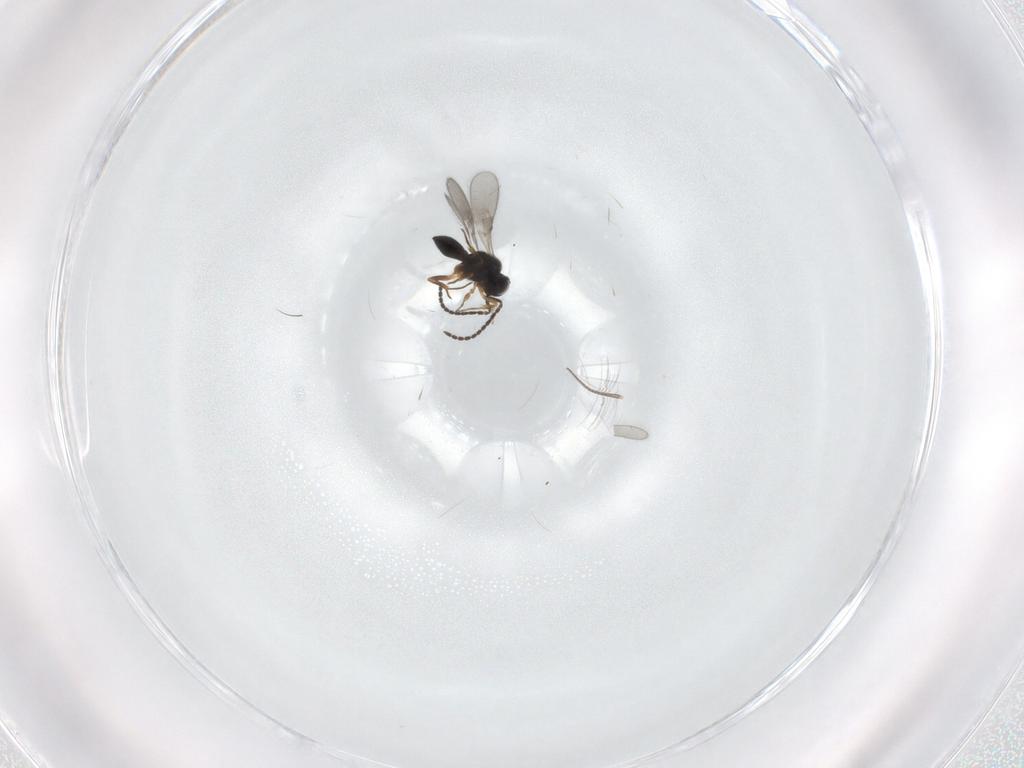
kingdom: Animalia
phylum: Arthropoda
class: Insecta
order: Hymenoptera
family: Scelionidae
